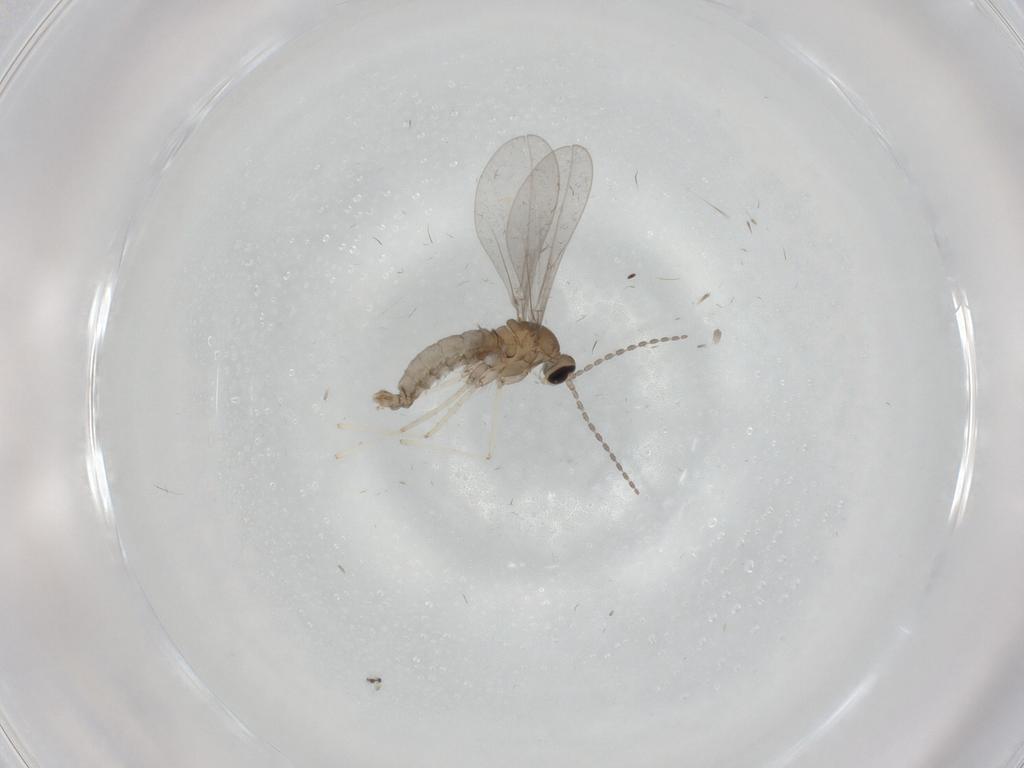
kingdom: Animalia
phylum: Arthropoda
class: Insecta
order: Diptera
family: Cecidomyiidae
